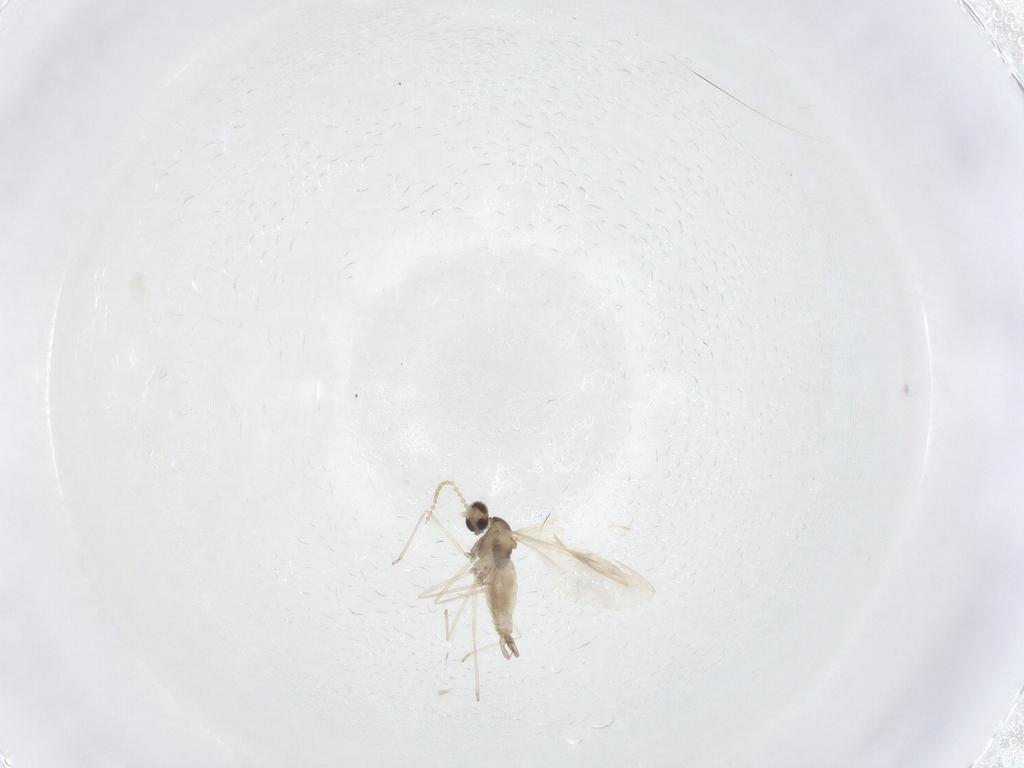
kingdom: Animalia
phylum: Arthropoda
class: Insecta
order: Diptera
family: Cecidomyiidae
